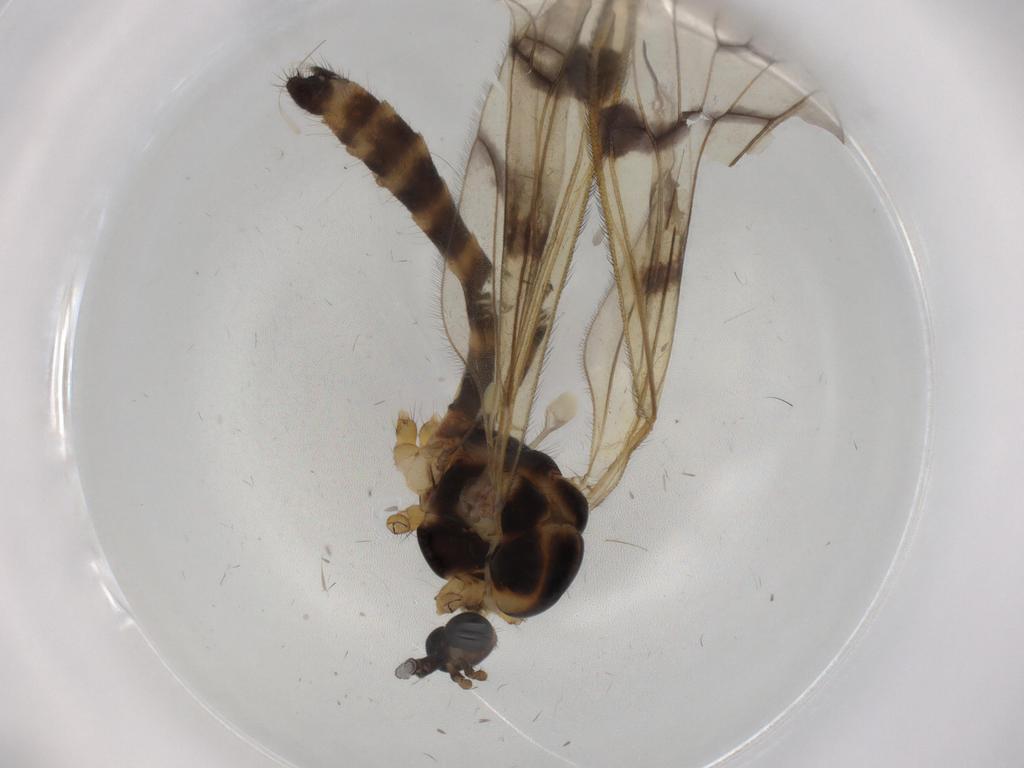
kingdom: Animalia
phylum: Arthropoda
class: Insecta
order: Diptera
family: Limoniidae
